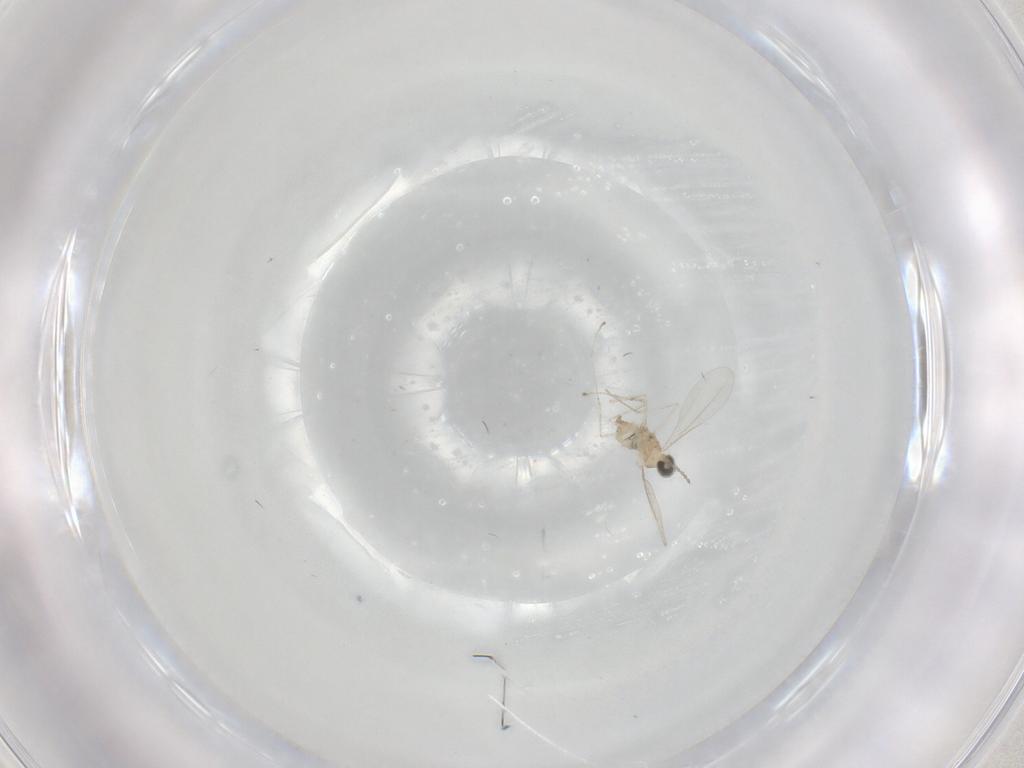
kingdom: Animalia
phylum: Arthropoda
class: Insecta
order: Diptera
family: Cecidomyiidae
